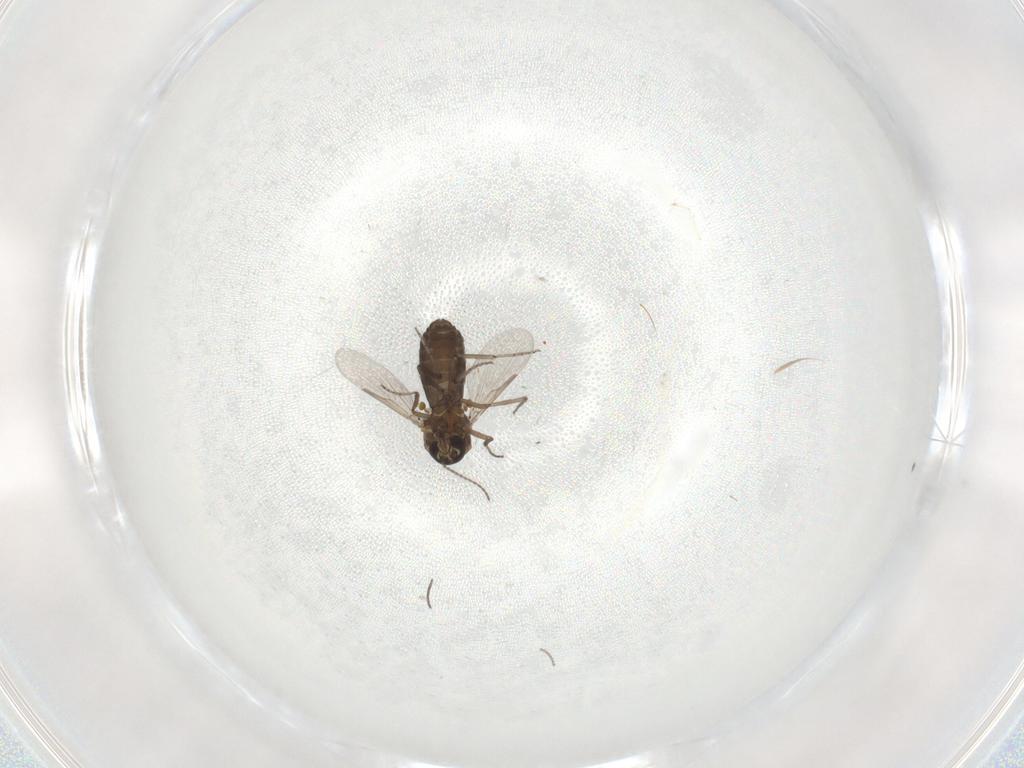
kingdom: Animalia
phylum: Arthropoda
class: Insecta
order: Diptera
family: Ceratopogonidae
